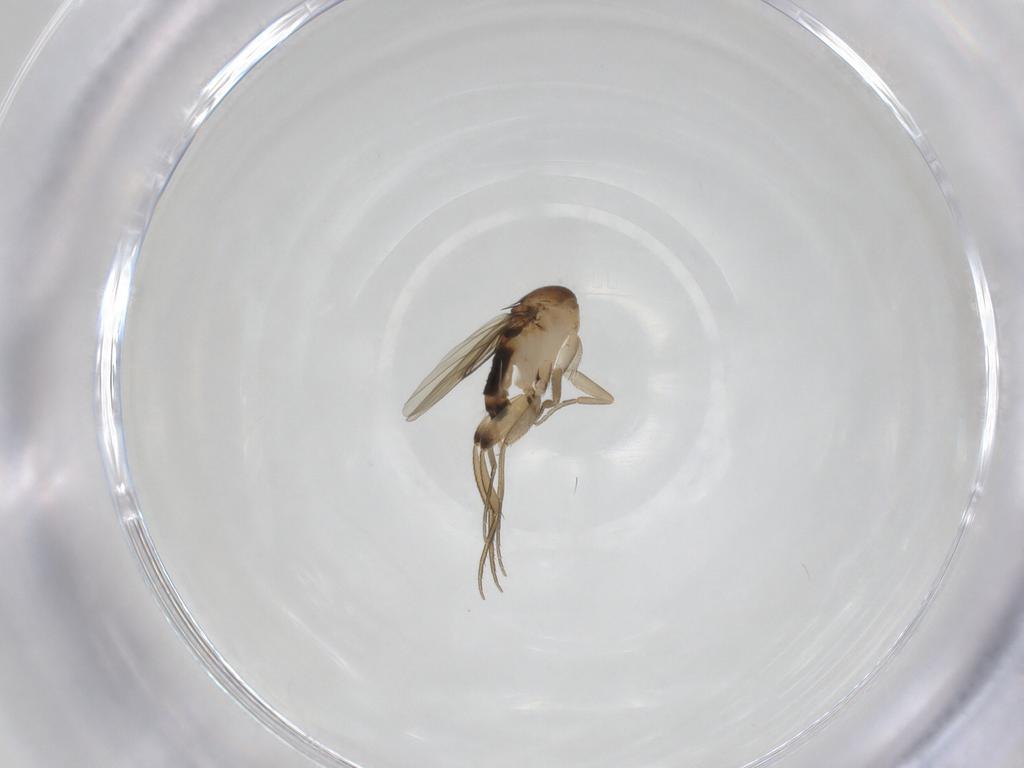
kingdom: Animalia
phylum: Arthropoda
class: Insecta
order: Diptera
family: Phoridae
